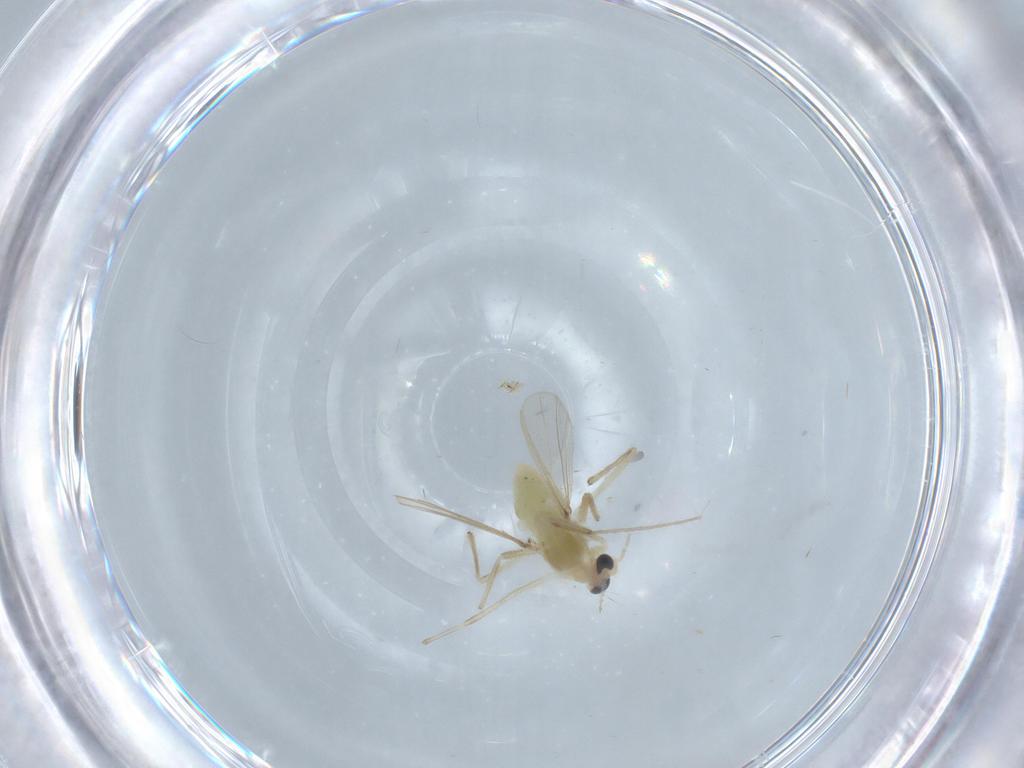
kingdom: Animalia
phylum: Arthropoda
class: Insecta
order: Diptera
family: Chironomidae
